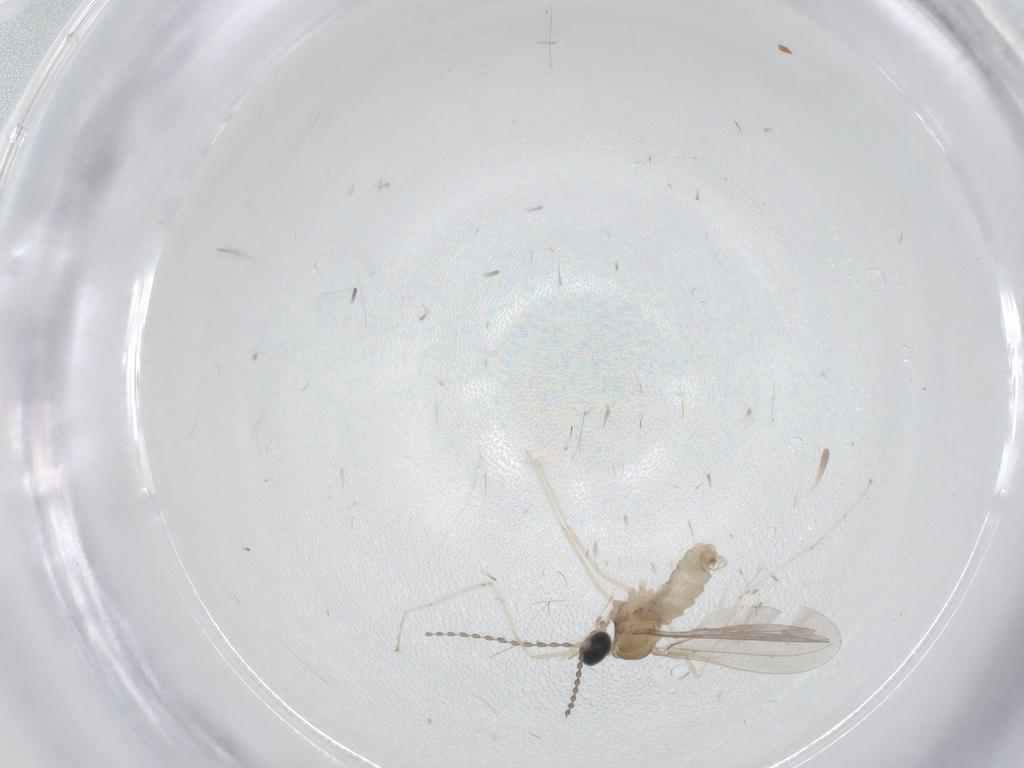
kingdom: Animalia
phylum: Arthropoda
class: Insecta
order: Diptera
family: Cecidomyiidae
